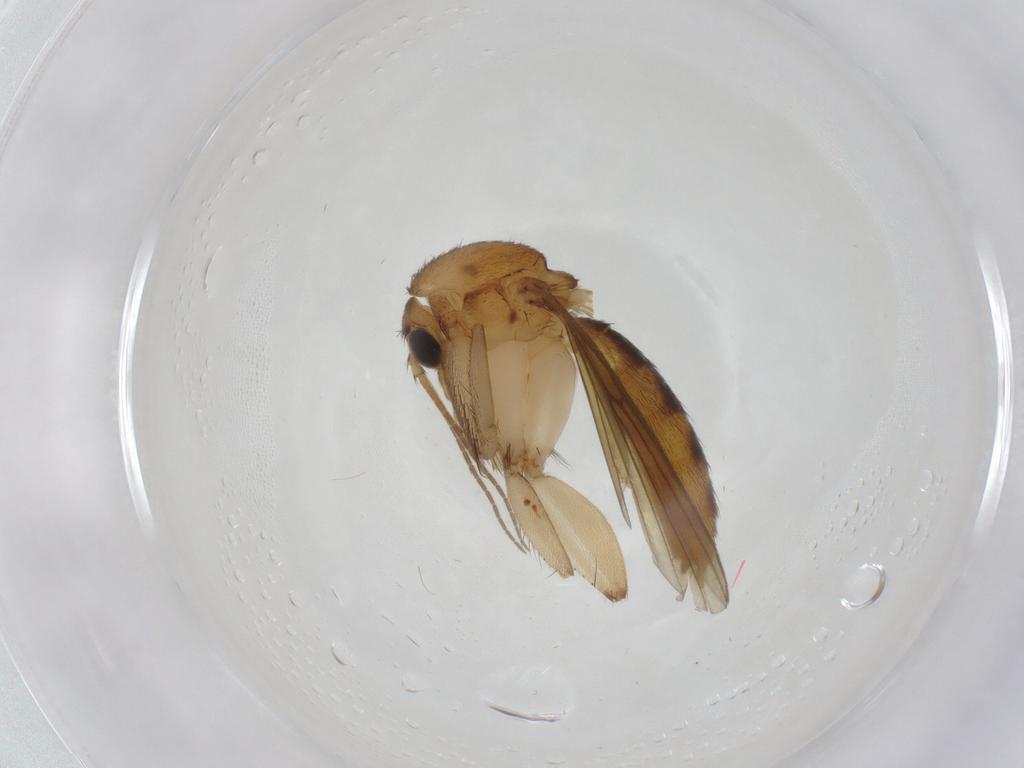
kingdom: Animalia
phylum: Arthropoda
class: Insecta
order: Diptera
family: Mycetophilidae
